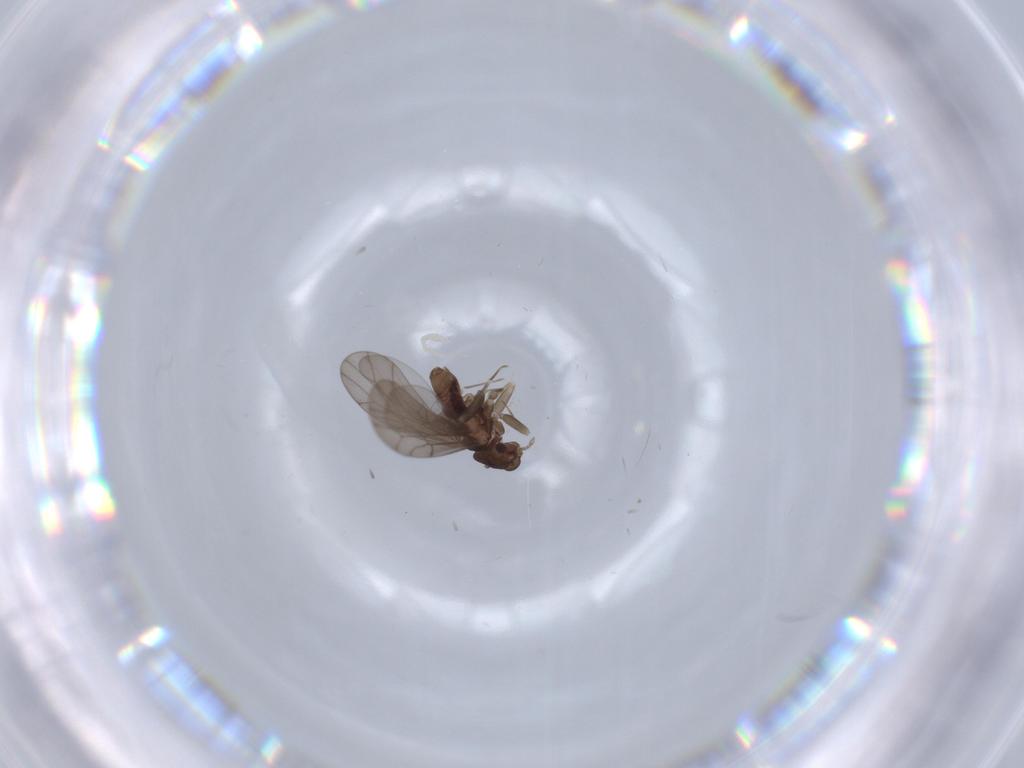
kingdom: Animalia
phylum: Arthropoda
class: Insecta
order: Psocodea
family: Lepidopsocidae
